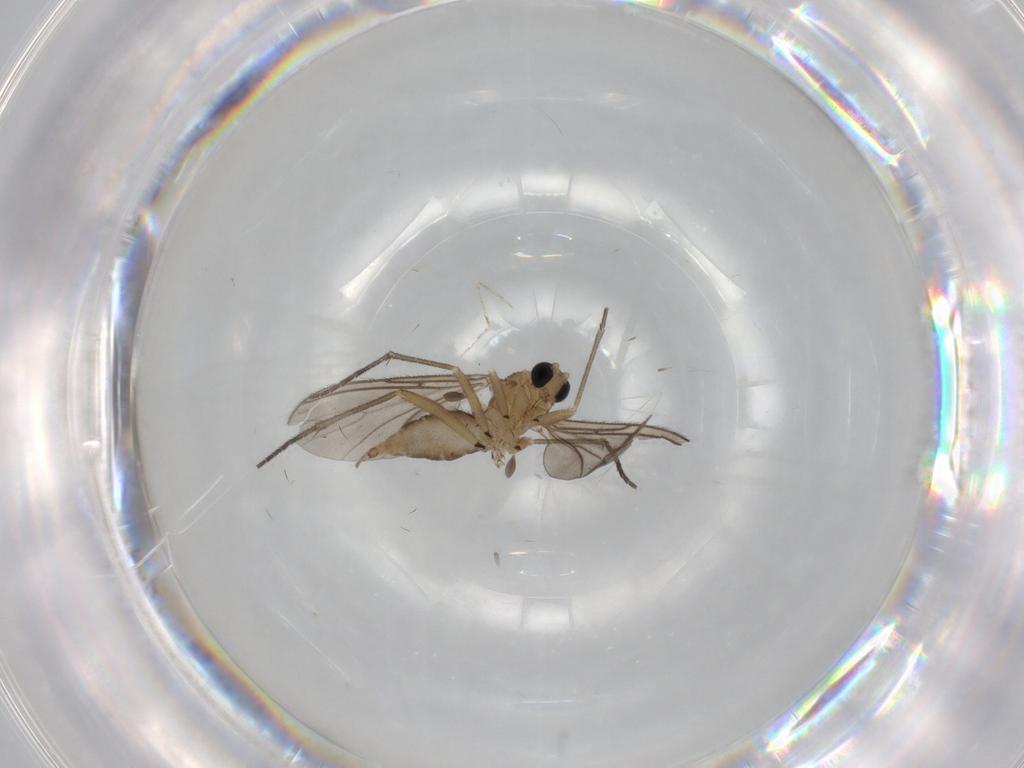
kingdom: Animalia
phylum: Arthropoda
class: Insecta
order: Diptera
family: Sciaridae
